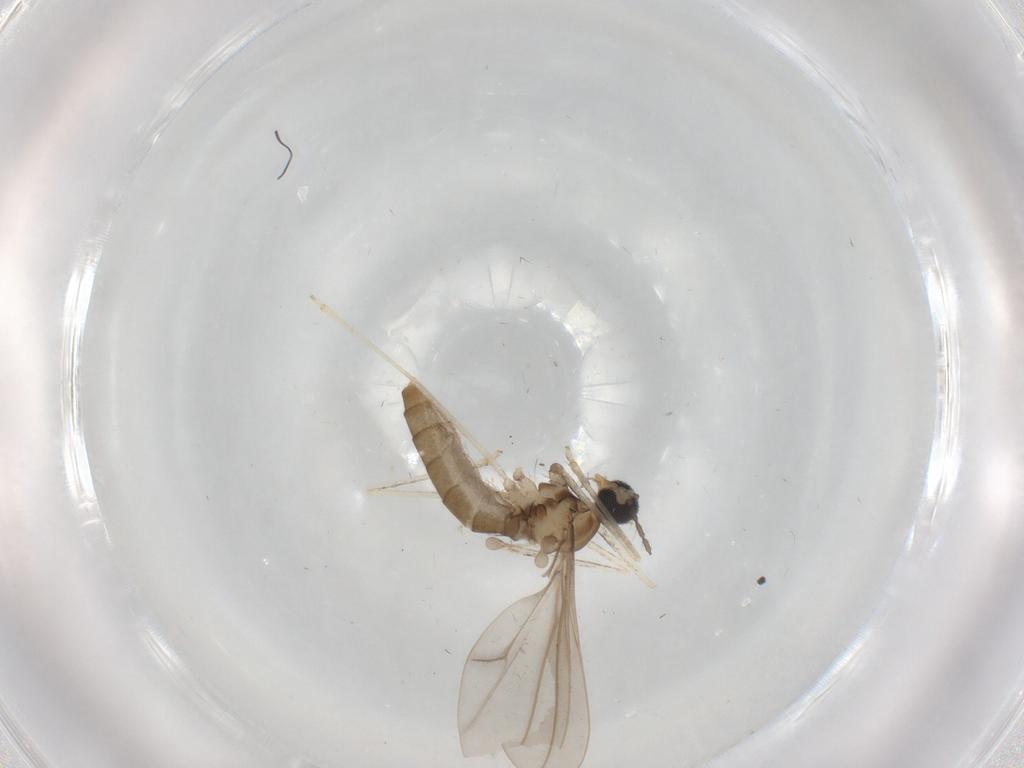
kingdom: Animalia
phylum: Arthropoda
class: Insecta
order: Diptera
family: Cecidomyiidae
